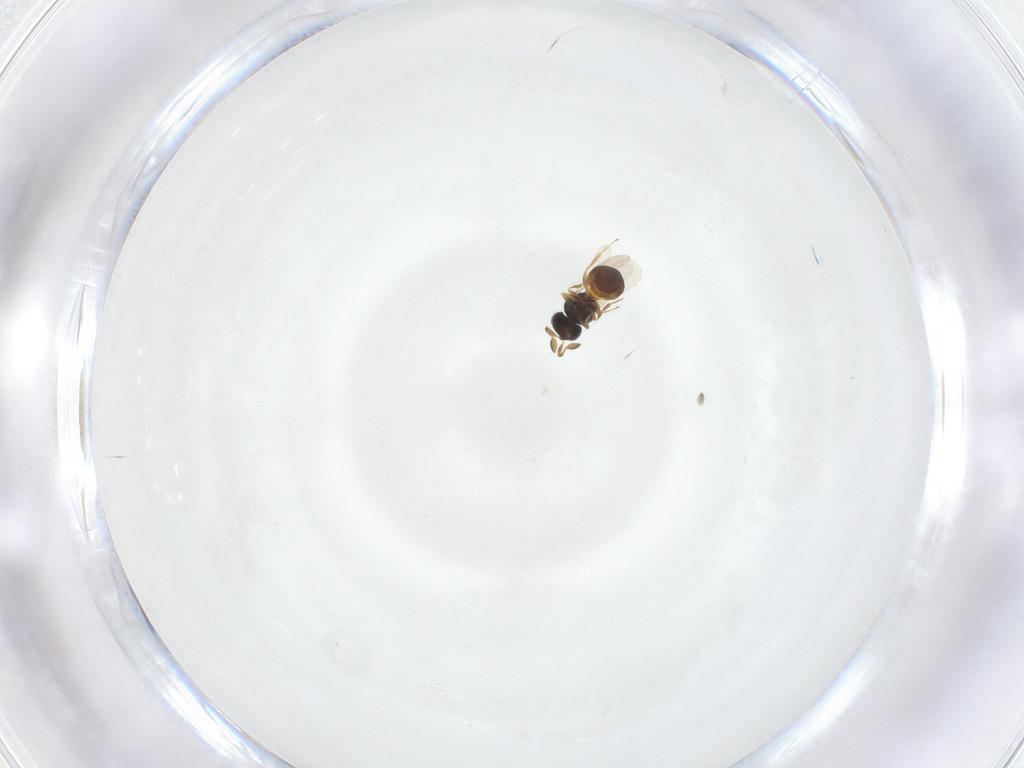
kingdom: Animalia
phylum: Arthropoda
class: Insecta
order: Hymenoptera
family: Scelionidae
